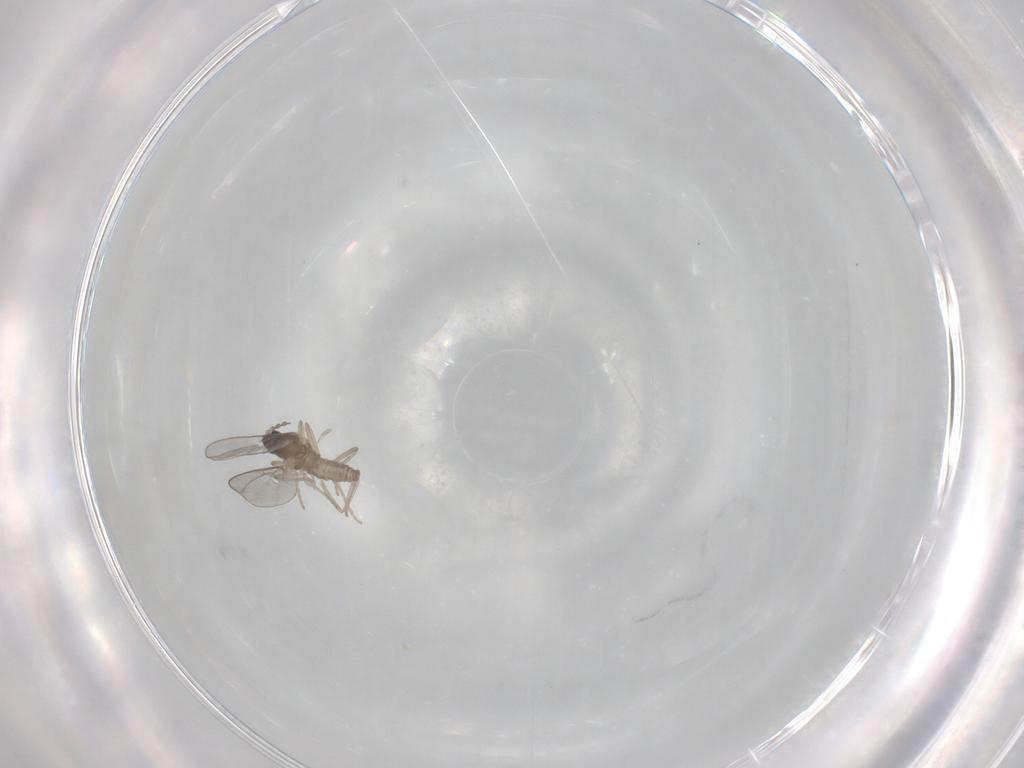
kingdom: Animalia
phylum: Arthropoda
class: Insecta
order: Diptera
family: Cecidomyiidae
